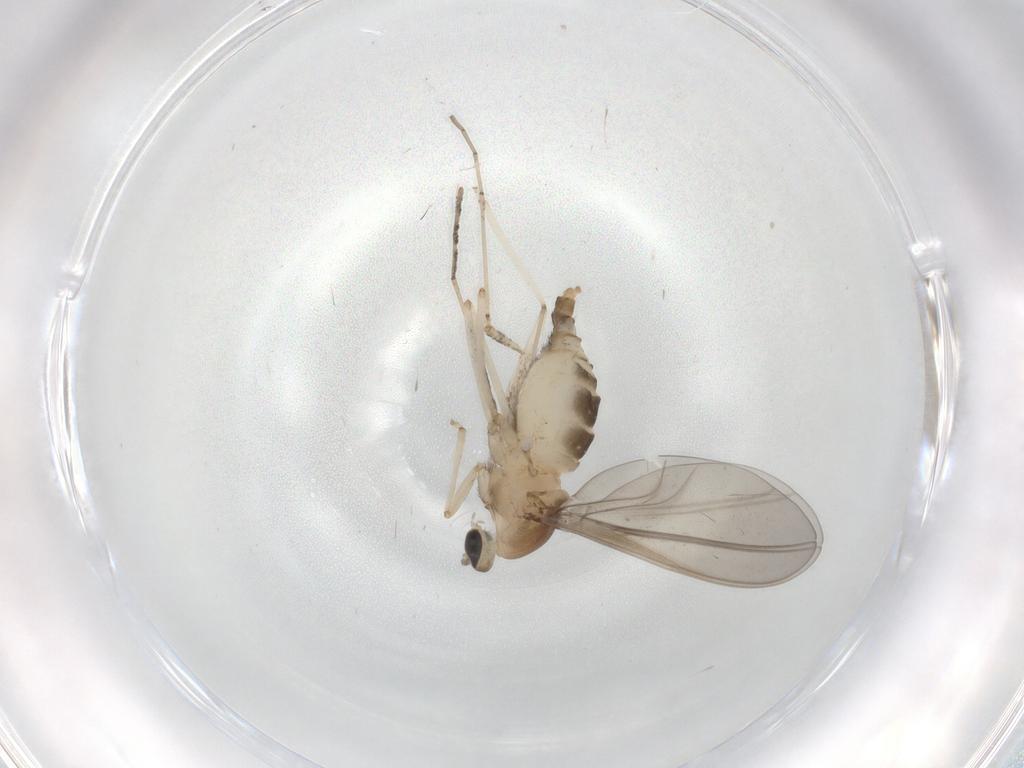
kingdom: Animalia
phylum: Arthropoda
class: Insecta
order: Diptera
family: Cecidomyiidae
